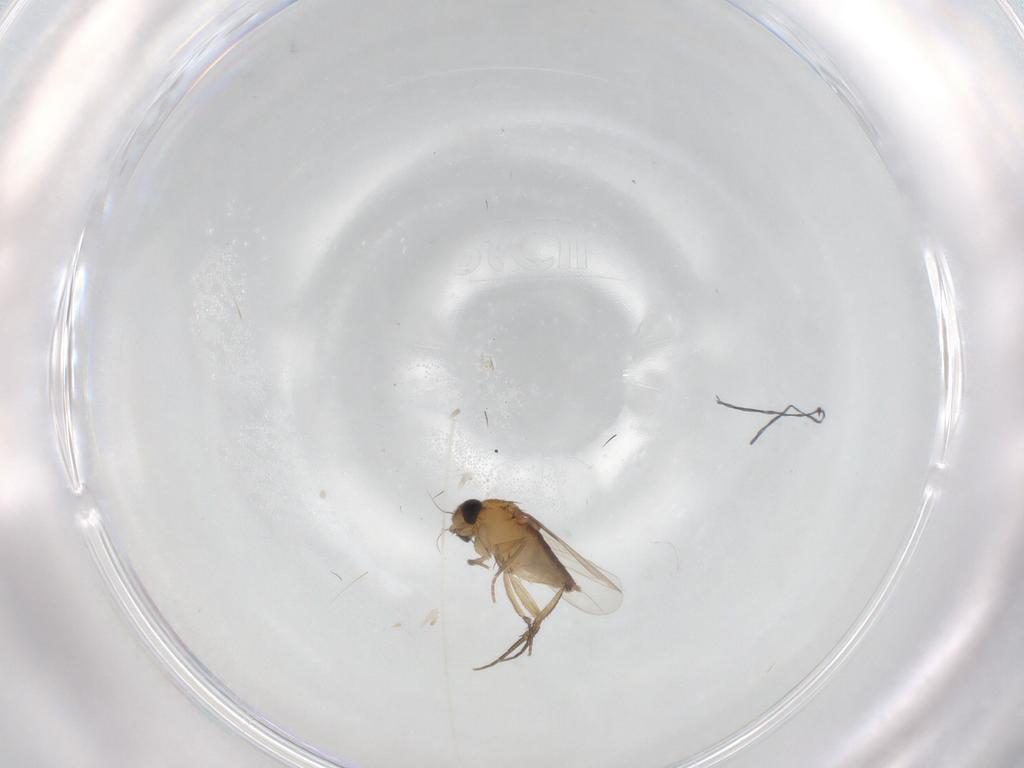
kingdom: Animalia
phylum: Arthropoda
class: Insecta
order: Diptera
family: Phoridae
